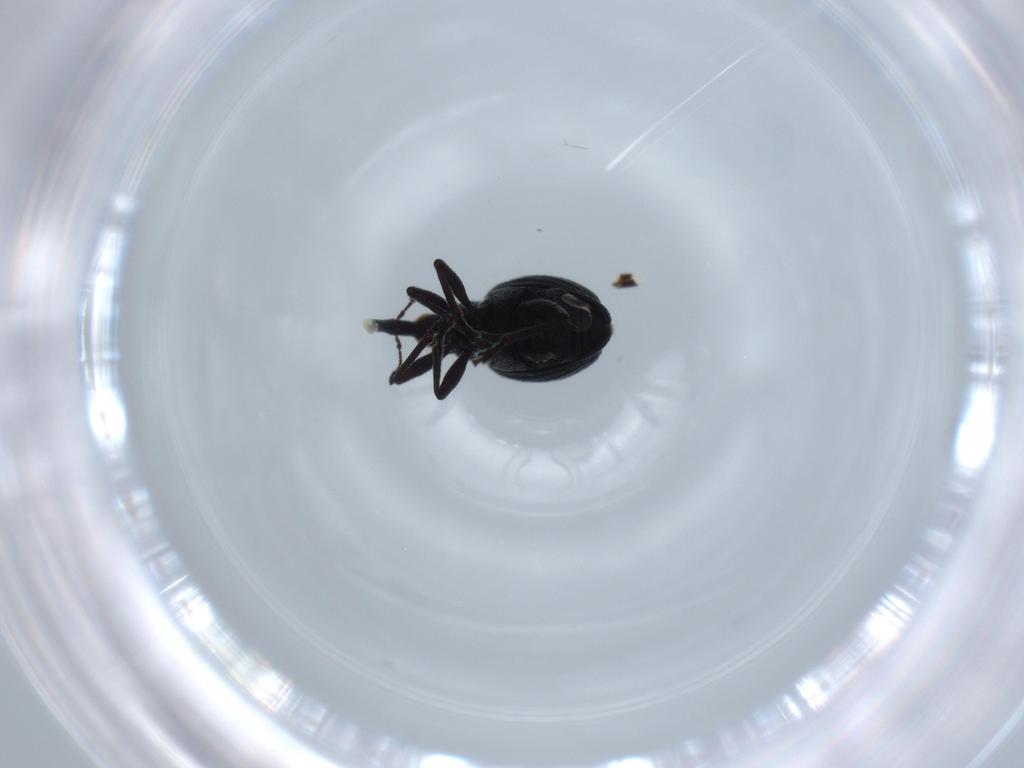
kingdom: Animalia
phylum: Arthropoda
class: Insecta
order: Coleoptera
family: Brentidae
